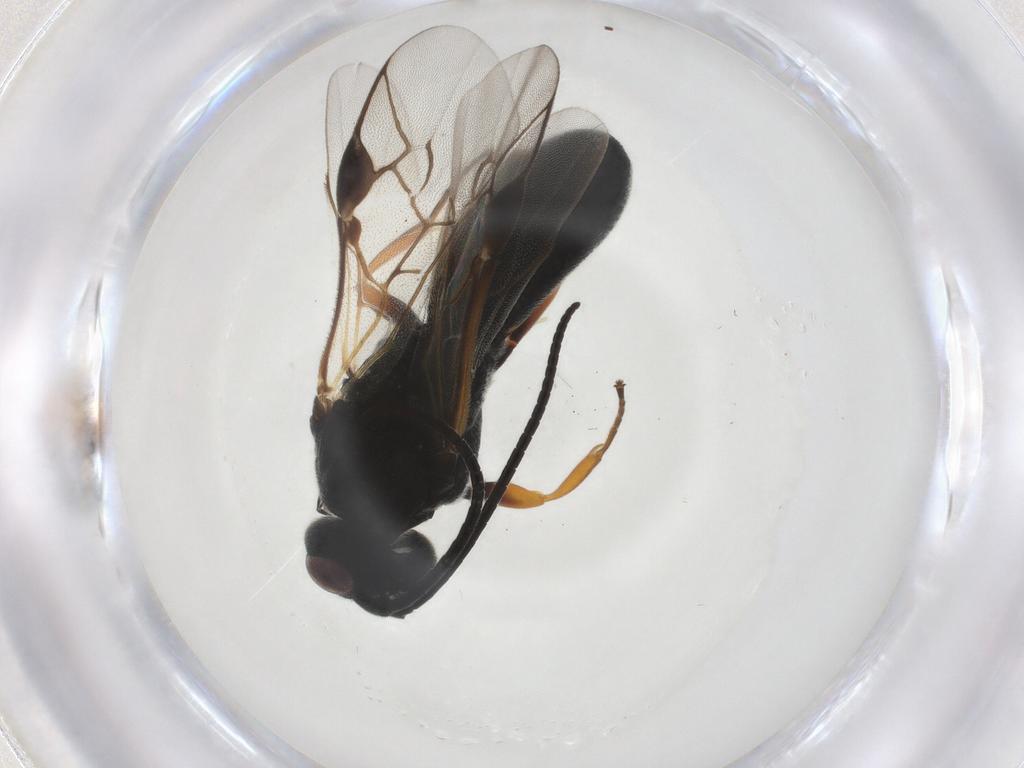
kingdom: Animalia
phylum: Arthropoda
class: Insecta
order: Hymenoptera
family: Braconidae
